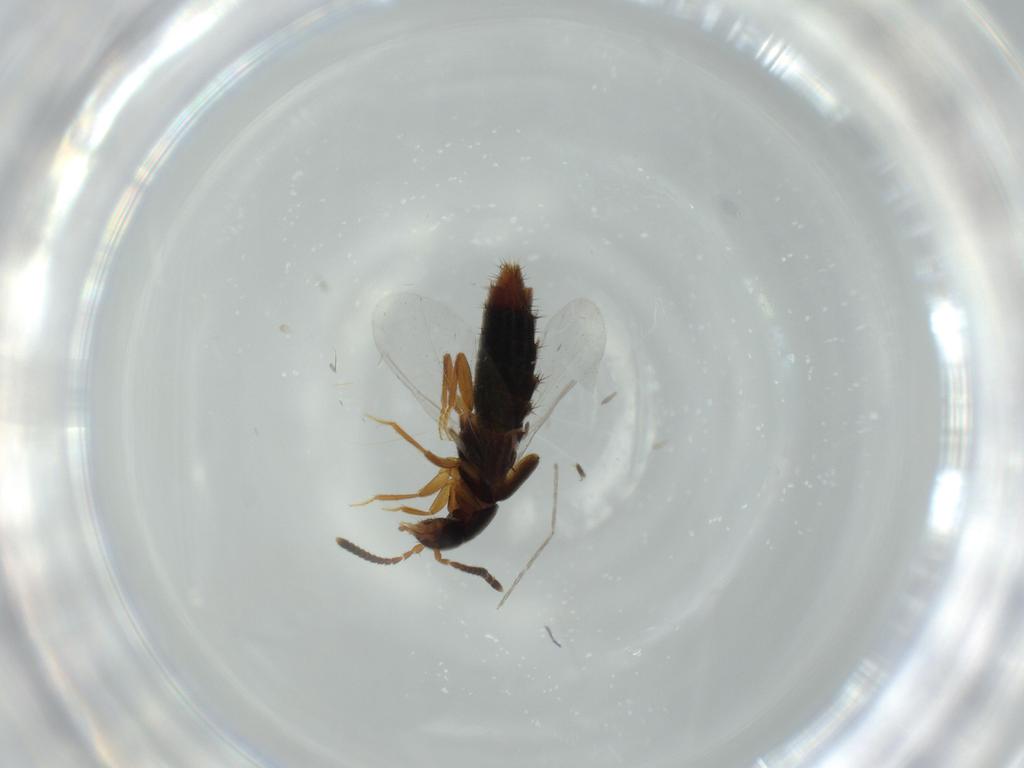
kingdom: Animalia
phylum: Arthropoda
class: Insecta
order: Coleoptera
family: Staphylinidae
